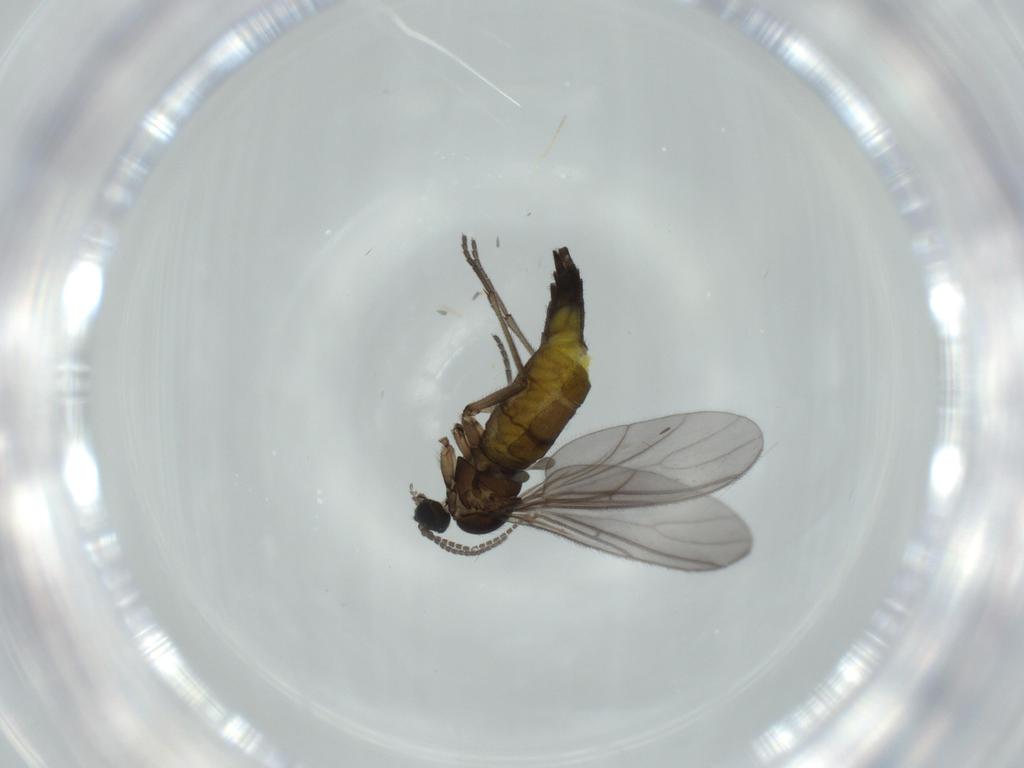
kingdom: Animalia
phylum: Arthropoda
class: Insecta
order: Diptera
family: Sciaridae
